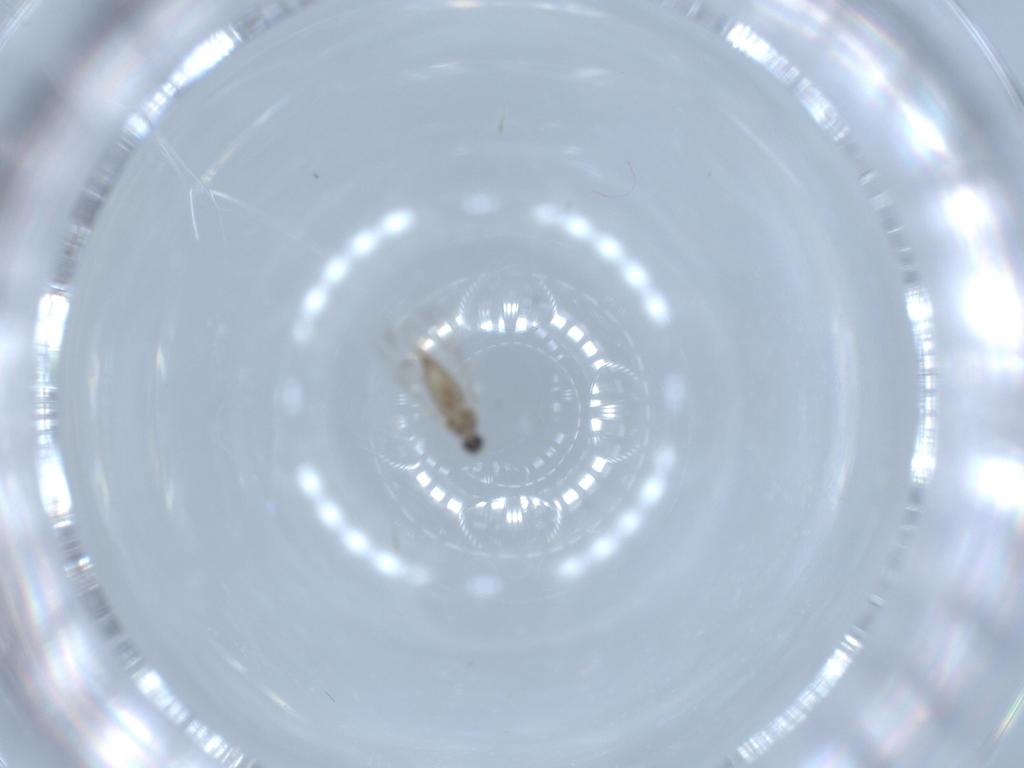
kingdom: Animalia
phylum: Arthropoda
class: Insecta
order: Diptera
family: Cecidomyiidae
